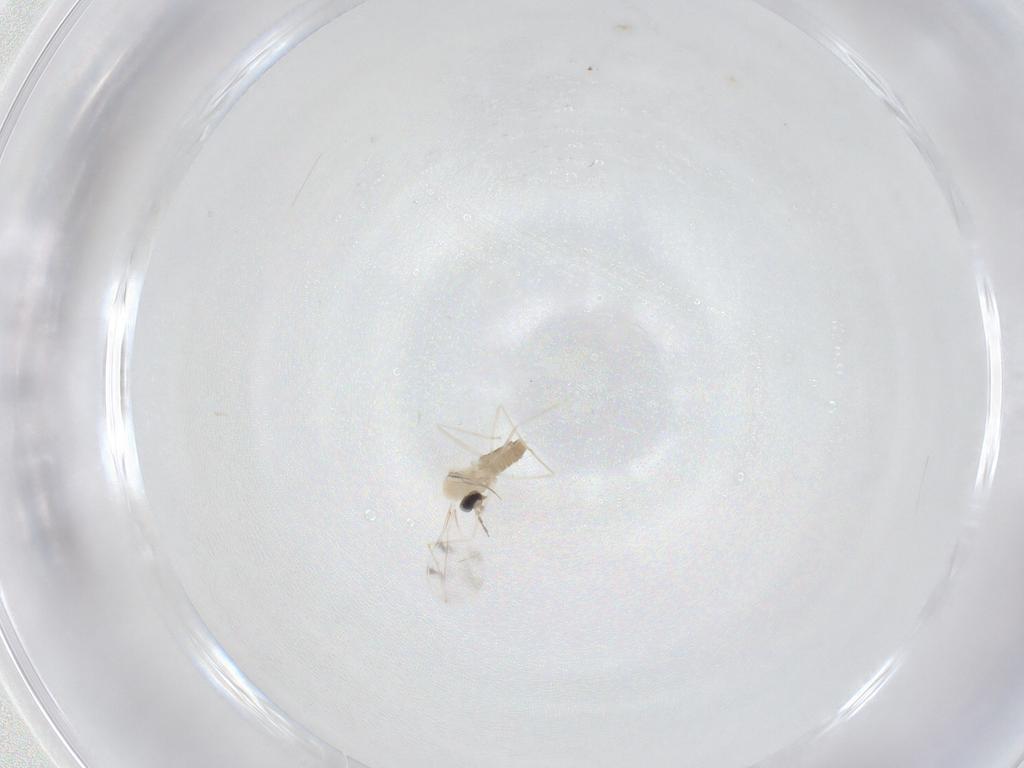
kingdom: Animalia
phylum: Arthropoda
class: Insecta
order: Diptera
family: Cecidomyiidae
